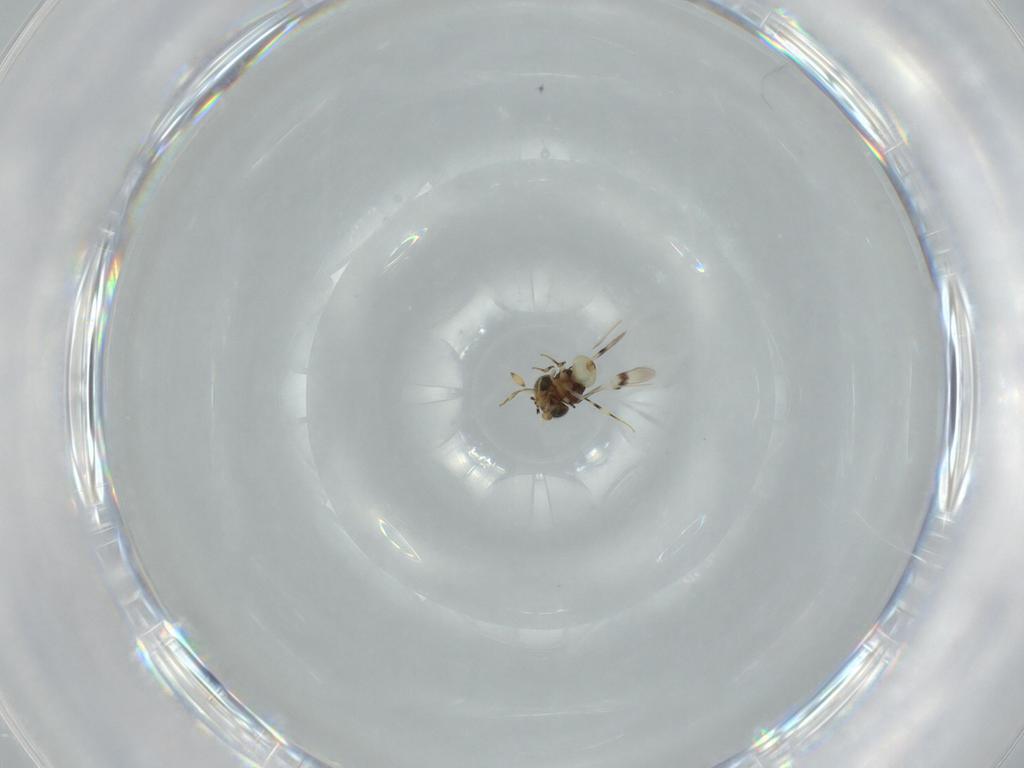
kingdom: Animalia
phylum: Arthropoda
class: Insecta
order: Hymenoptera
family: Scelionidae
